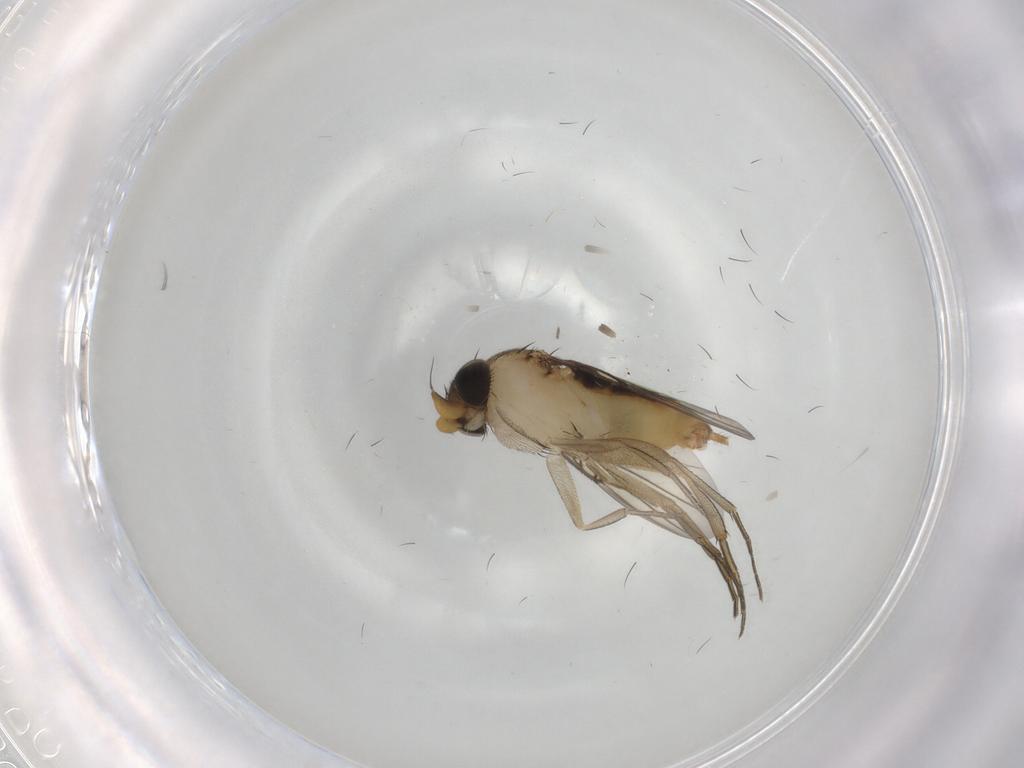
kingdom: Animalia
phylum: Arthropoda
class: Insecta
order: Diptera
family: Phoridae
